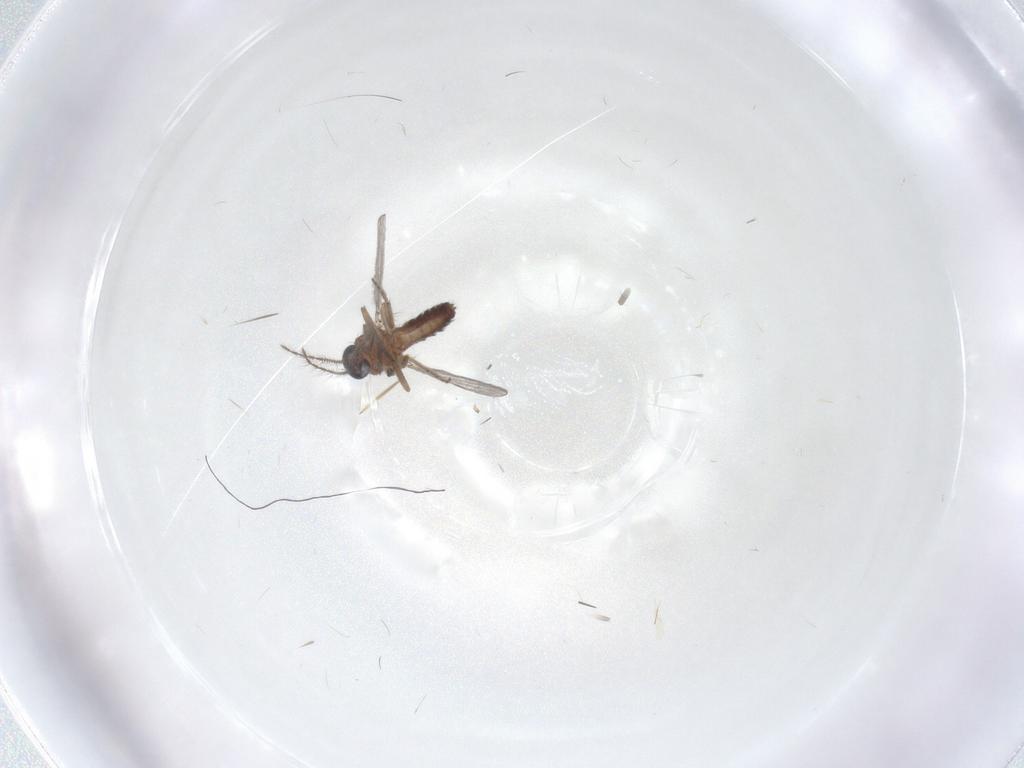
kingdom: Animalia
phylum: Arthropoda
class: Insecta
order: Diptera
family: Ceratopogonidae
